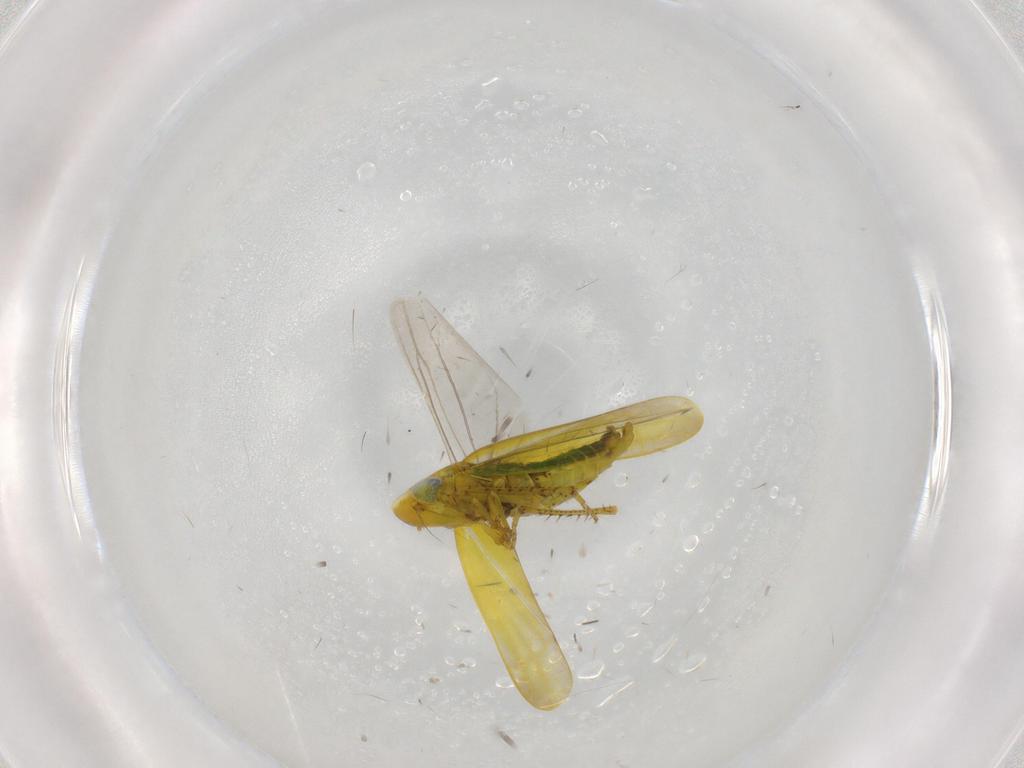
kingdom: Animalia
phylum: Arthropoda
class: Insecta
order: Hemiptera
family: Cicadellidae
